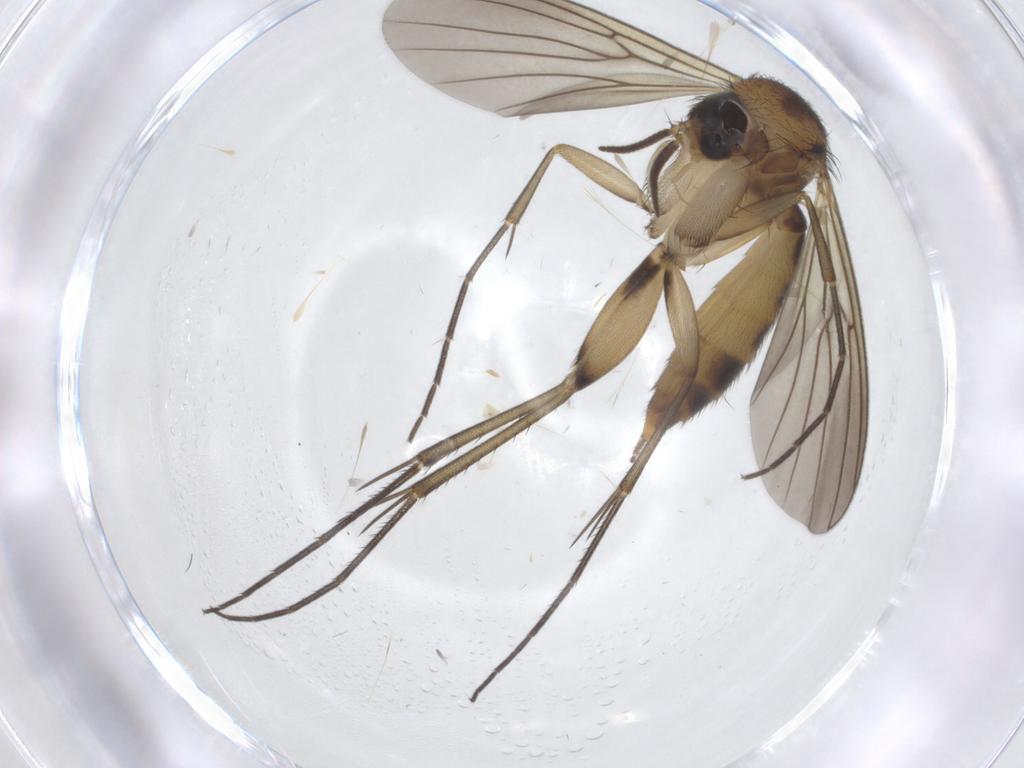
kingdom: Animalia
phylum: Arthropoda
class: Insecta
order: Diptera
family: Mycetophilidae
